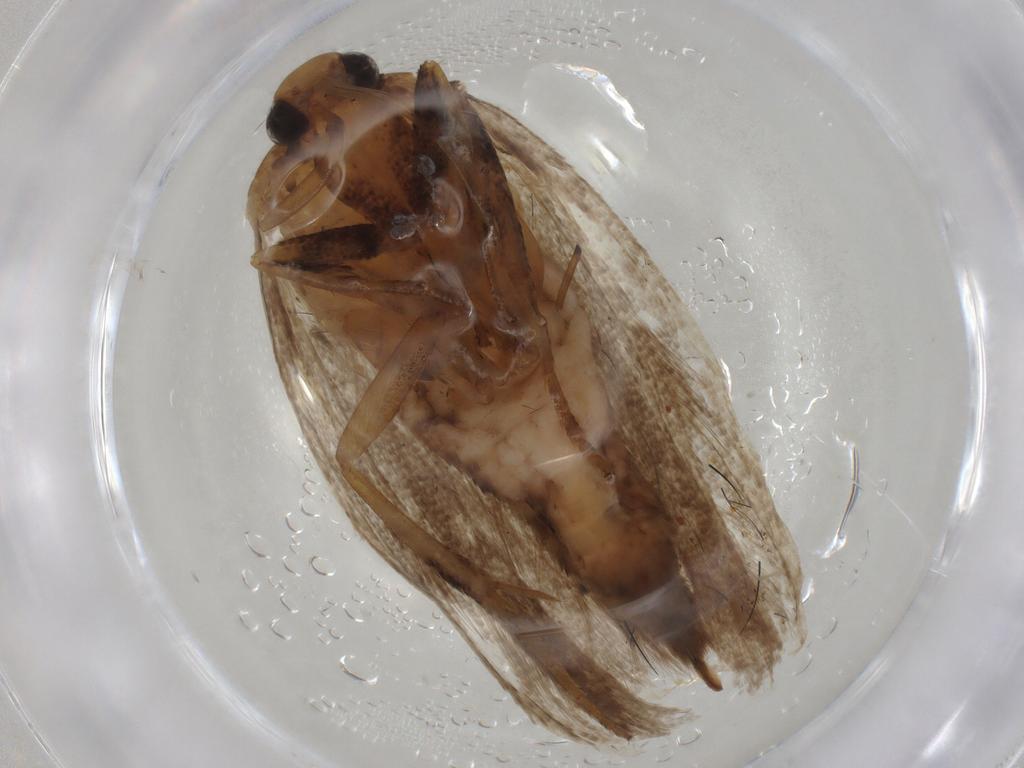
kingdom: Animalia
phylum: Arthropoda
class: Insecta
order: Lepidoptera
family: Gelechiidae
